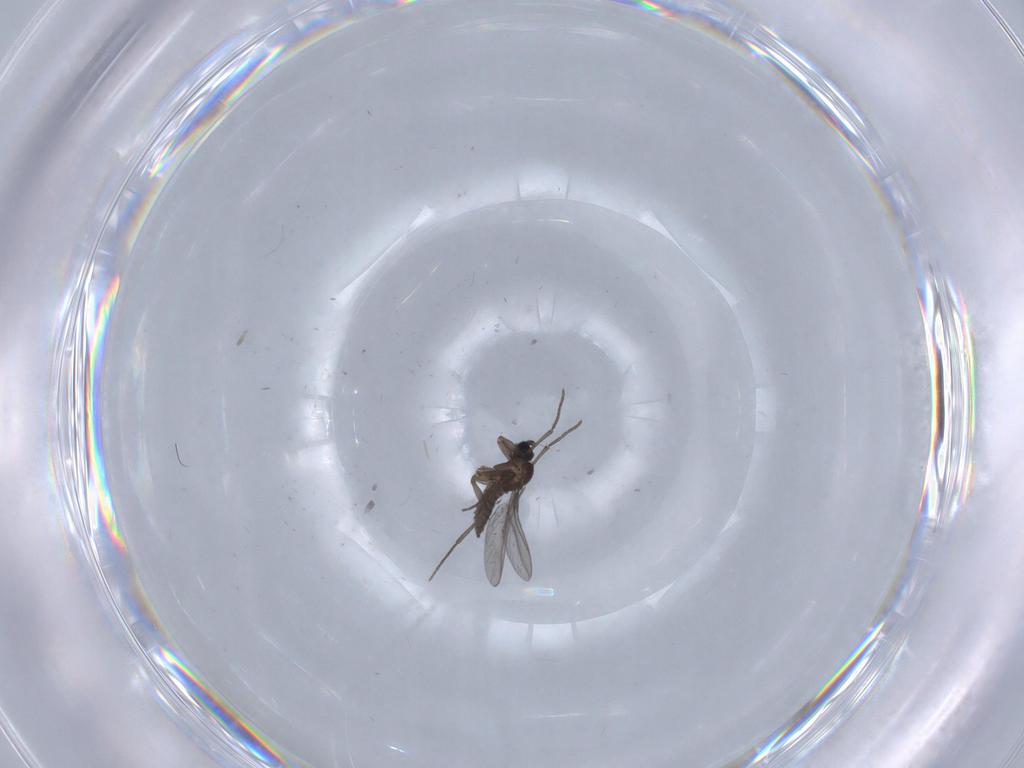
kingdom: Animalia
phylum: Arthropoda
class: Insecta
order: Diptera
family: Sciaridae
